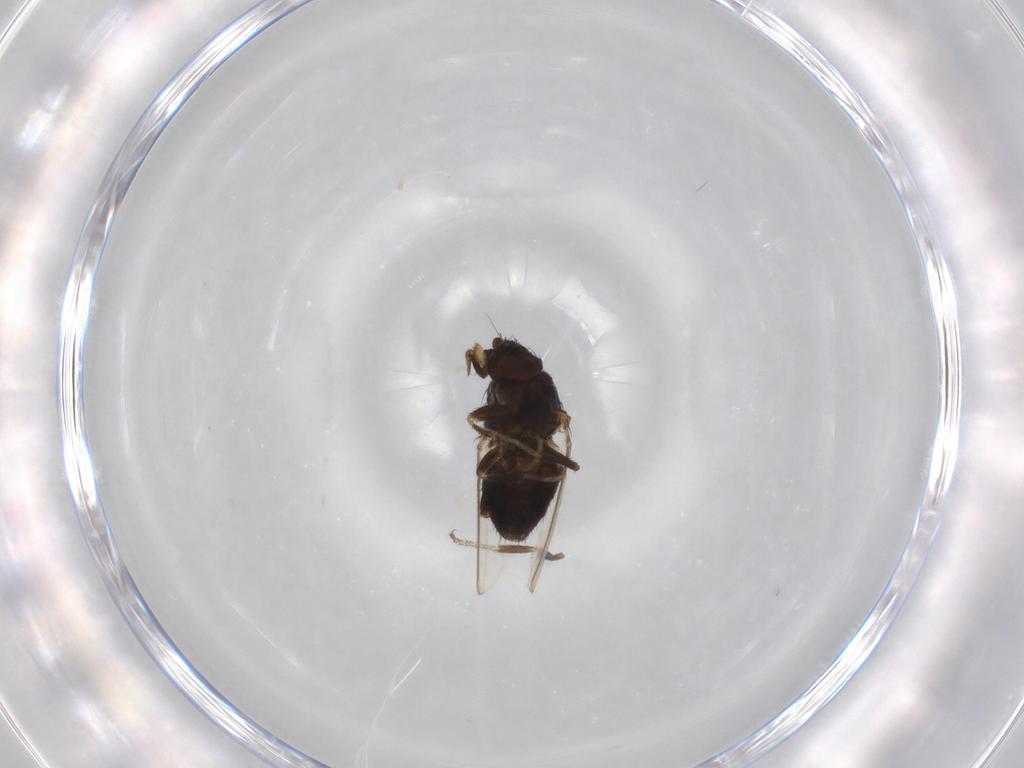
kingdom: Animalia
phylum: Arthropoda
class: Insecta
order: Diptera
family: Milichiidae
